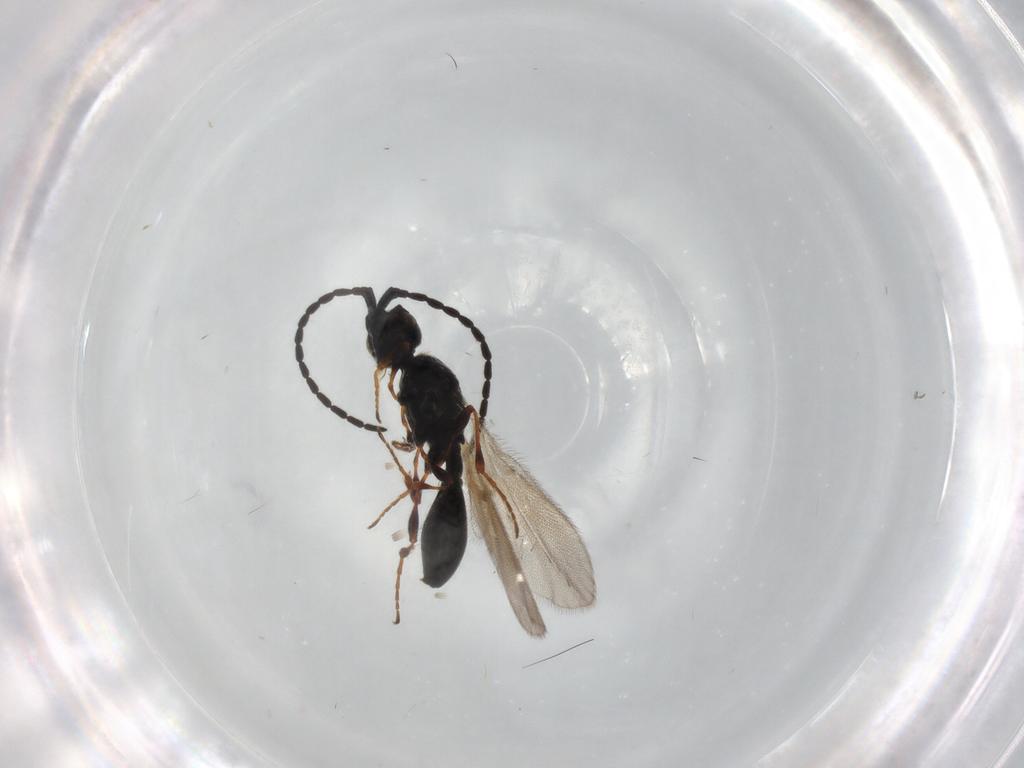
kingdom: Animalia
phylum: Arthropoda
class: Insecta
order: Hymenoptera
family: Diapriidae
